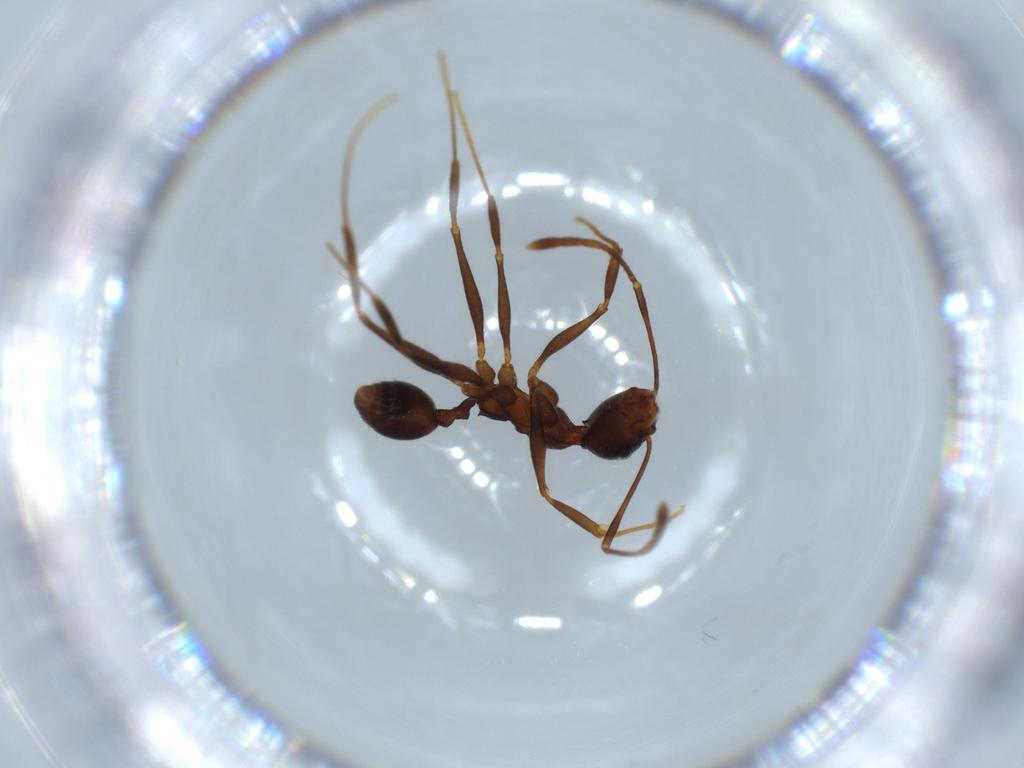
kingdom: Animalia
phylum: Arthropoda
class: Insecta
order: Hymenoptera
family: Formicidae
